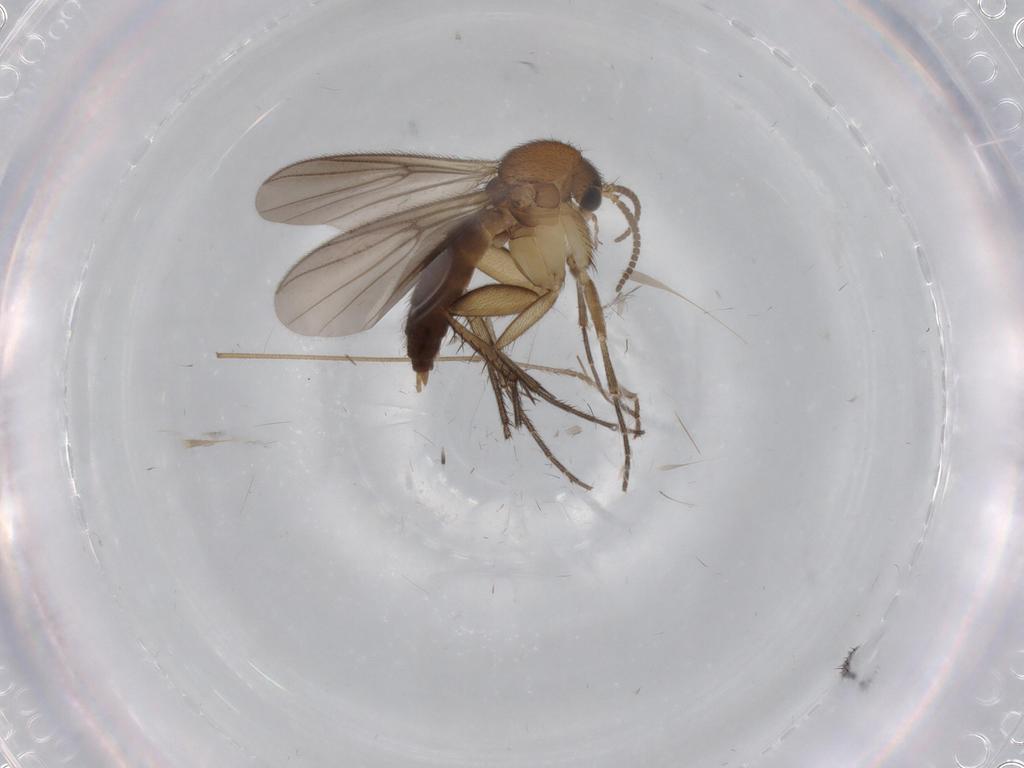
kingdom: Animalia
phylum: Arthropoda
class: Insecta
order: Diptera
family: Mycetophilidae
